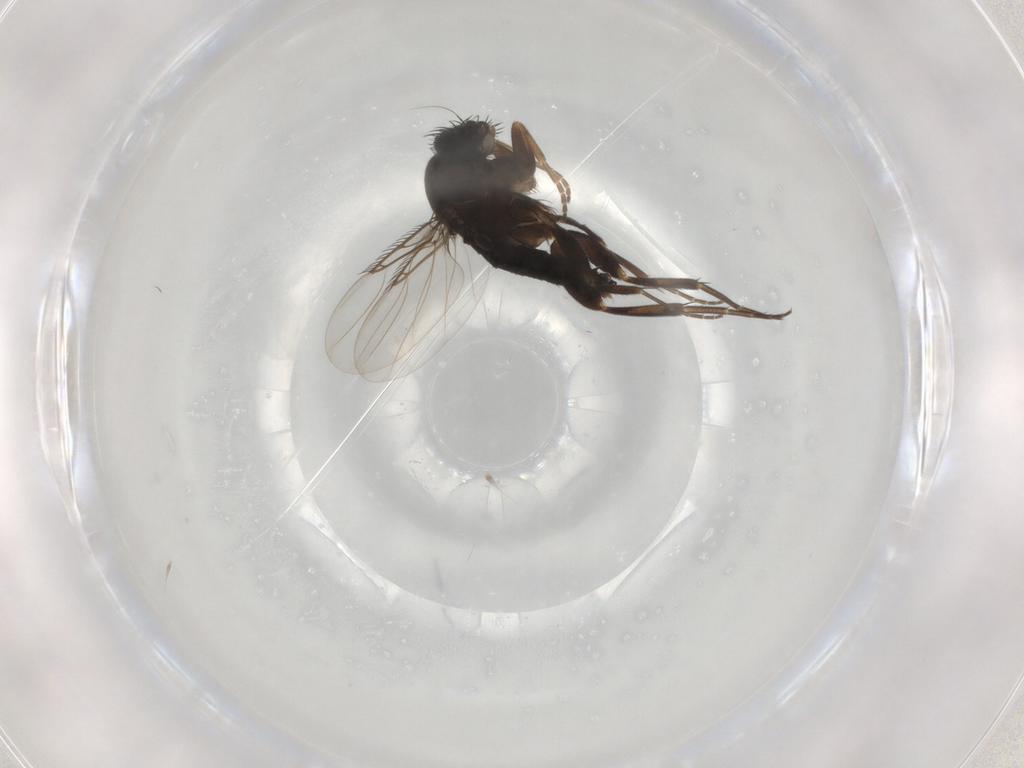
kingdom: Animalia
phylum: Arthropoda
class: Insecta
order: Diptera
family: Phoridae
